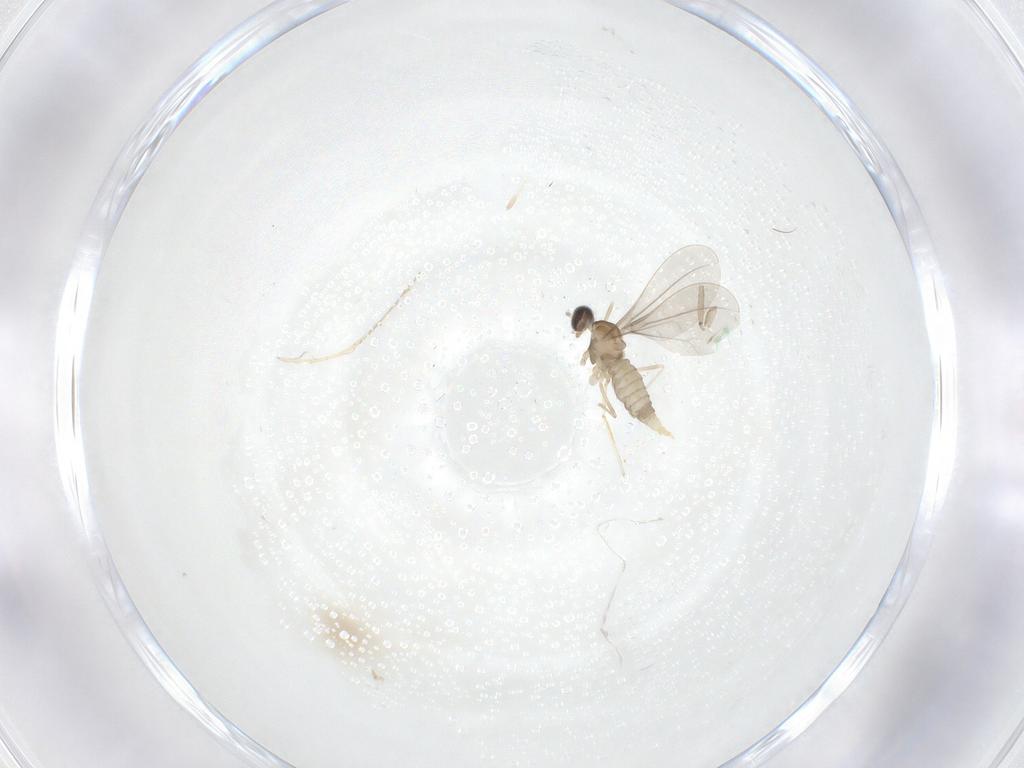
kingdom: Animalia
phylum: Arthropoda
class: Insecta
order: Diptera
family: Cecidomyiidae
